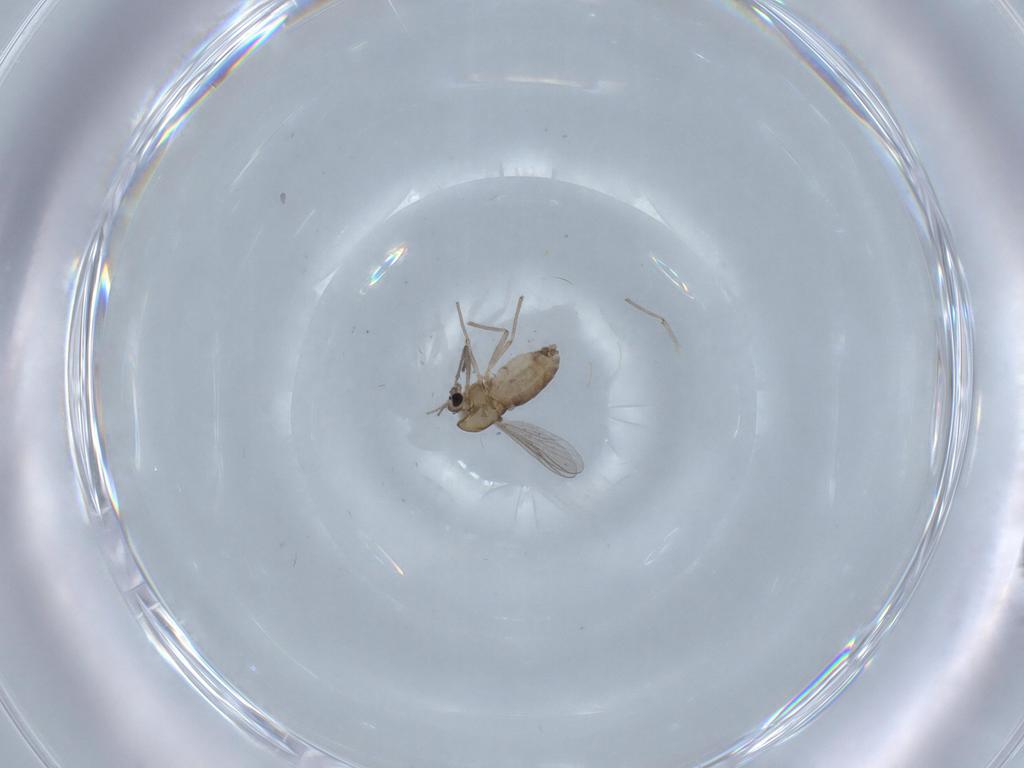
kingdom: Animalia
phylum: Arthropoda
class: Insecta
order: Diptera
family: Chironomidae
